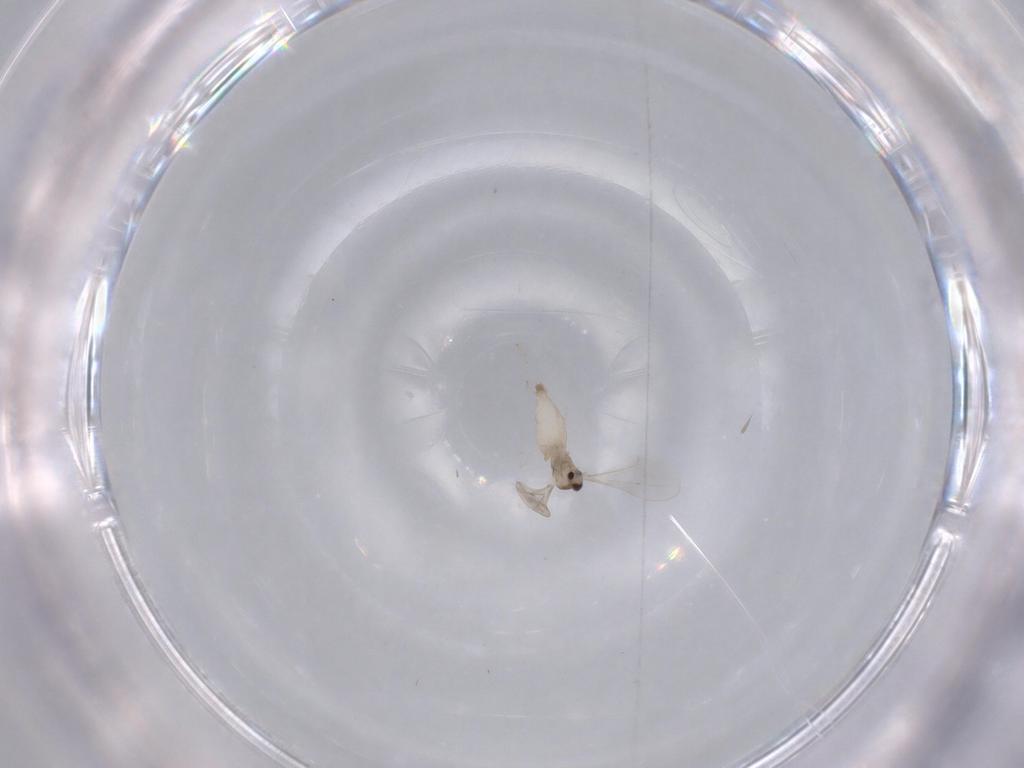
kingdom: Animalia
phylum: Arthropoda
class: Insecta
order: Diptera
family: Cecidomyiidae
